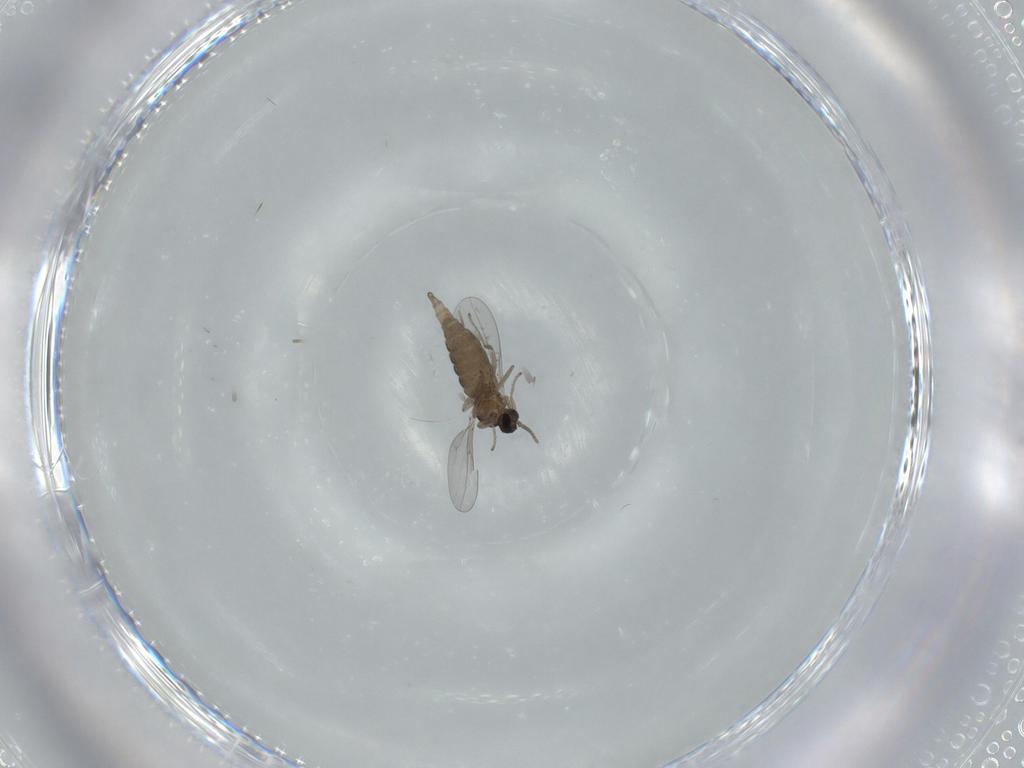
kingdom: Animalia
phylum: Arthropoda
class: Insecta
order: Diptera
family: Cecidomyiidae
